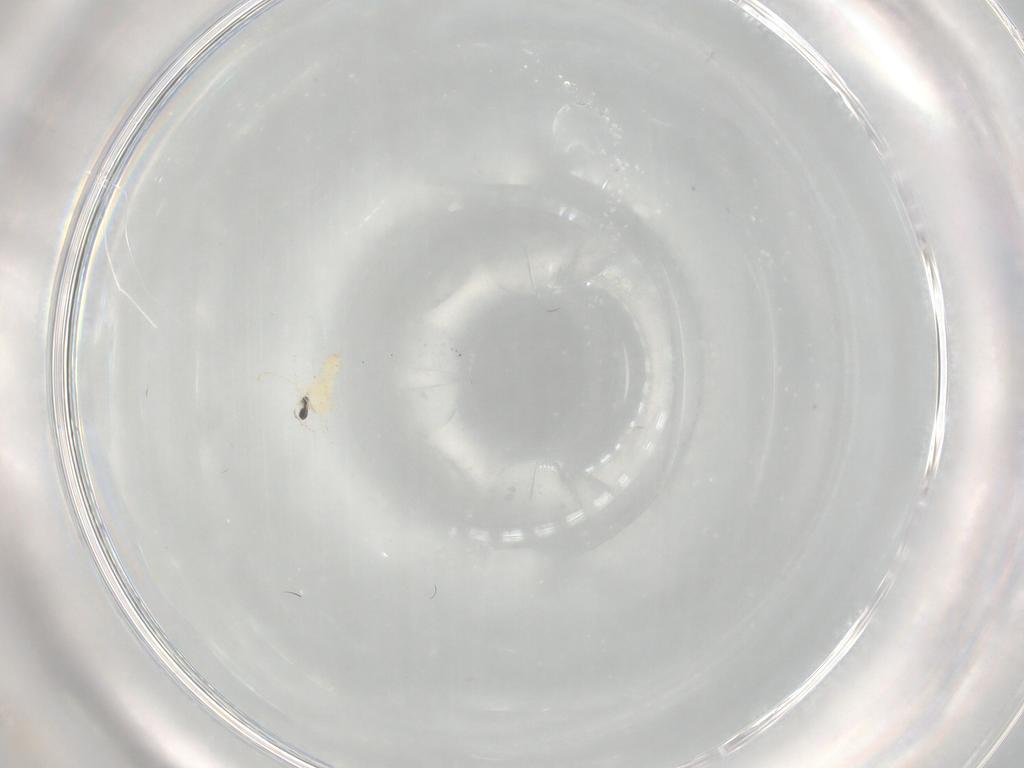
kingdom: Animalia
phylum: Arthropoda
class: Insecta
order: Diptera
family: Cecidomyiidae
